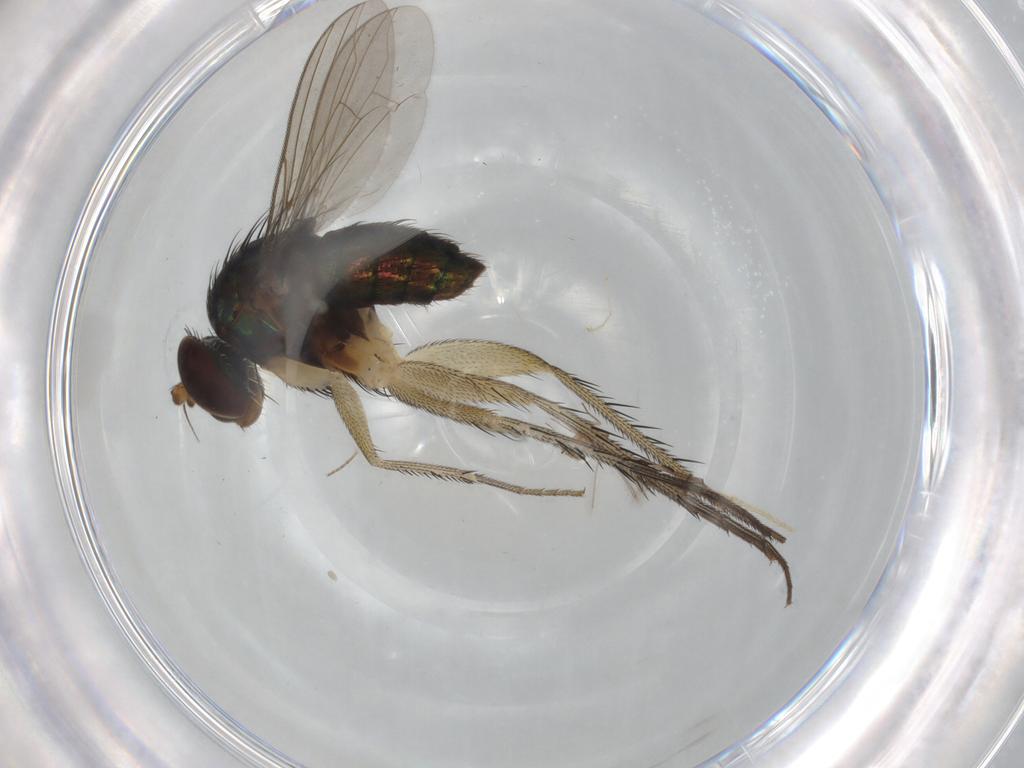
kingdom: Animalia
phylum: Arthropoda
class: Insecta
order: Diptera
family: Dolichopodidae
